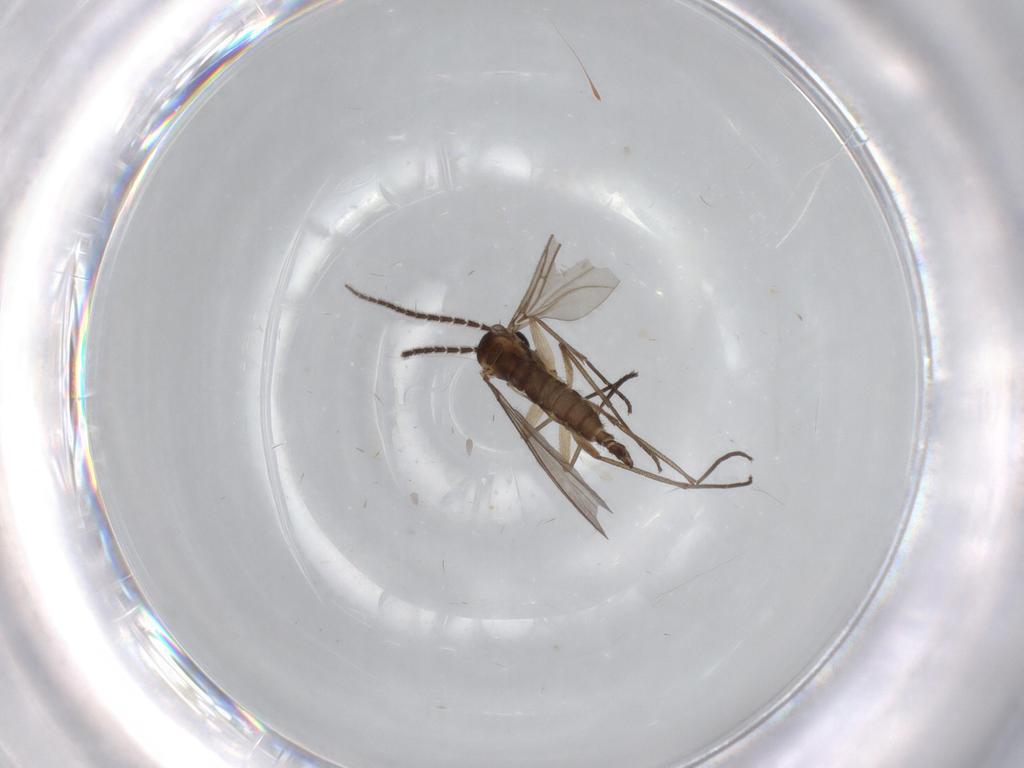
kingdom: Animalia
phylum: Arthropoda
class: Insecta
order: Diptera
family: Sciaridae
